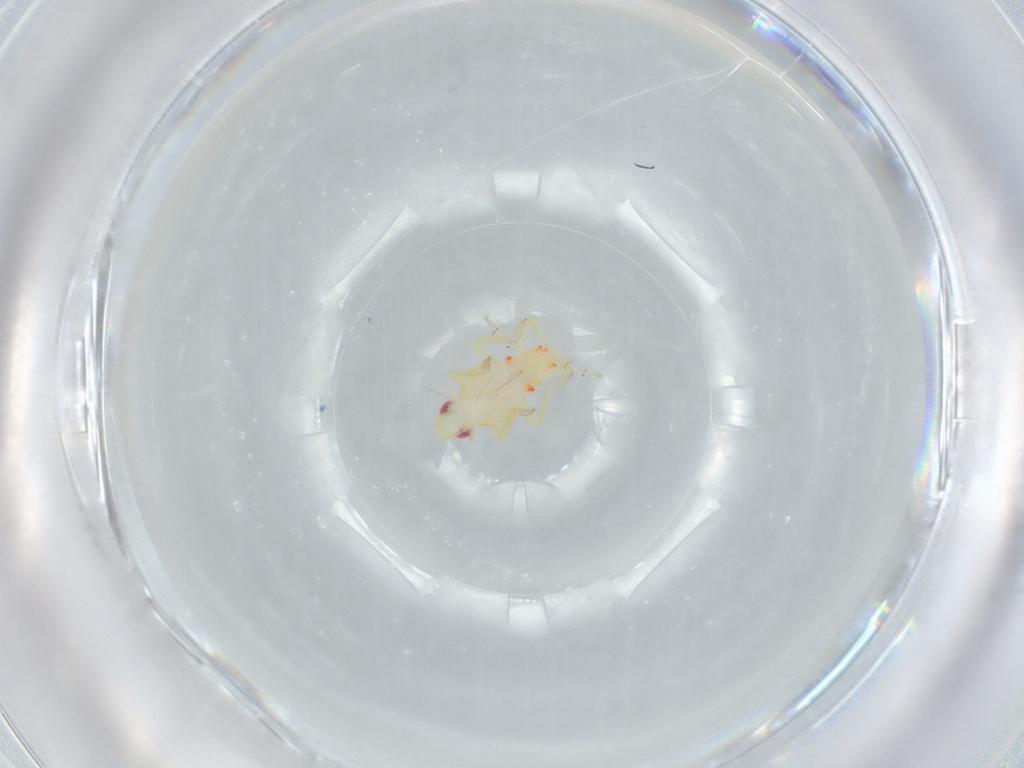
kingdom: Animalia
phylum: Arthropoda
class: Insecta
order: Hemiptera
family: Tropiduchidae
